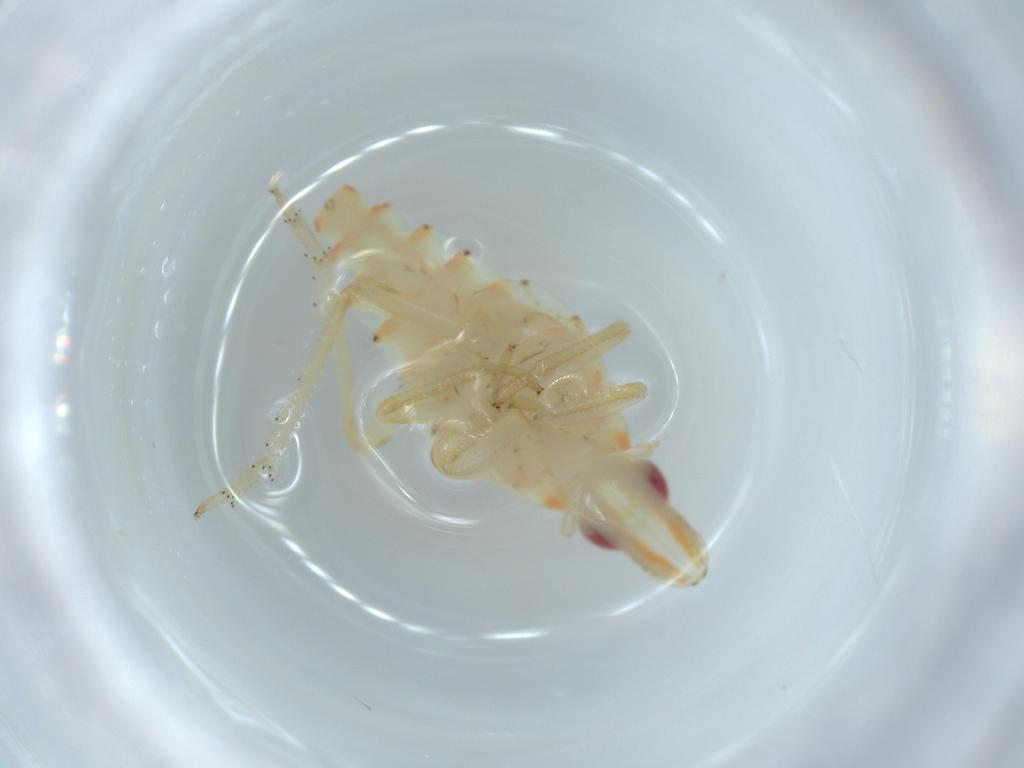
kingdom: Animalia
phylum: Arthropoda
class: Insecta
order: Hemiptera
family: Tropiduchidae
